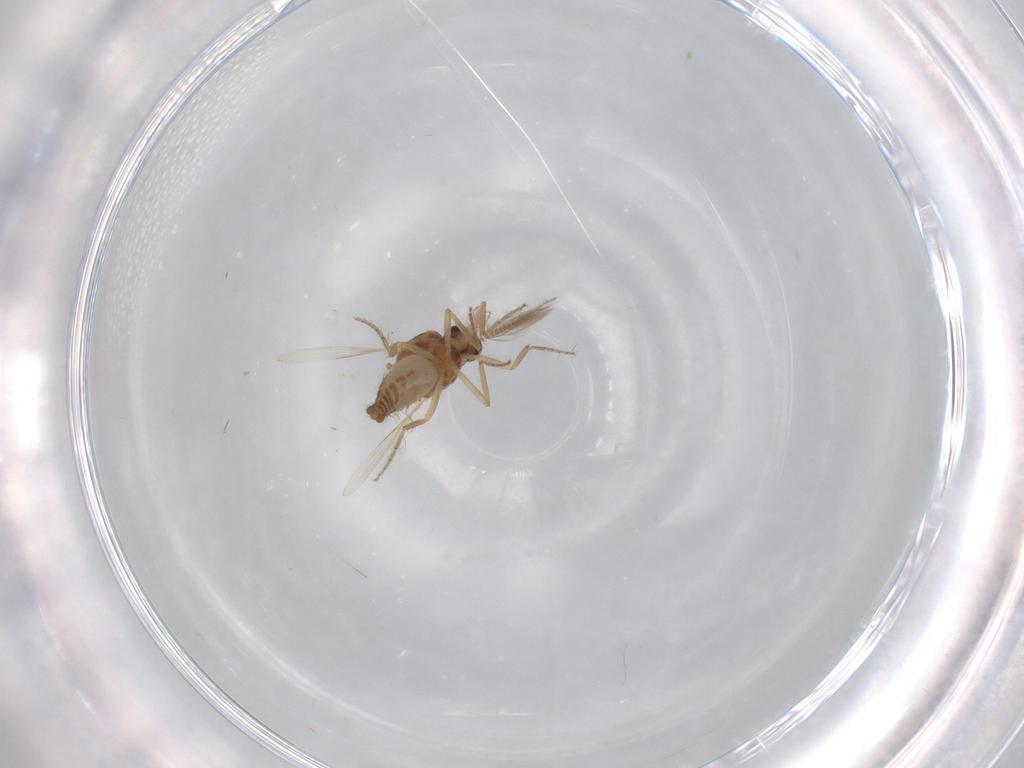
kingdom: Animalia
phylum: Arthropoda
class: Insecta
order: Diptera
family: Ceratopogonidae
